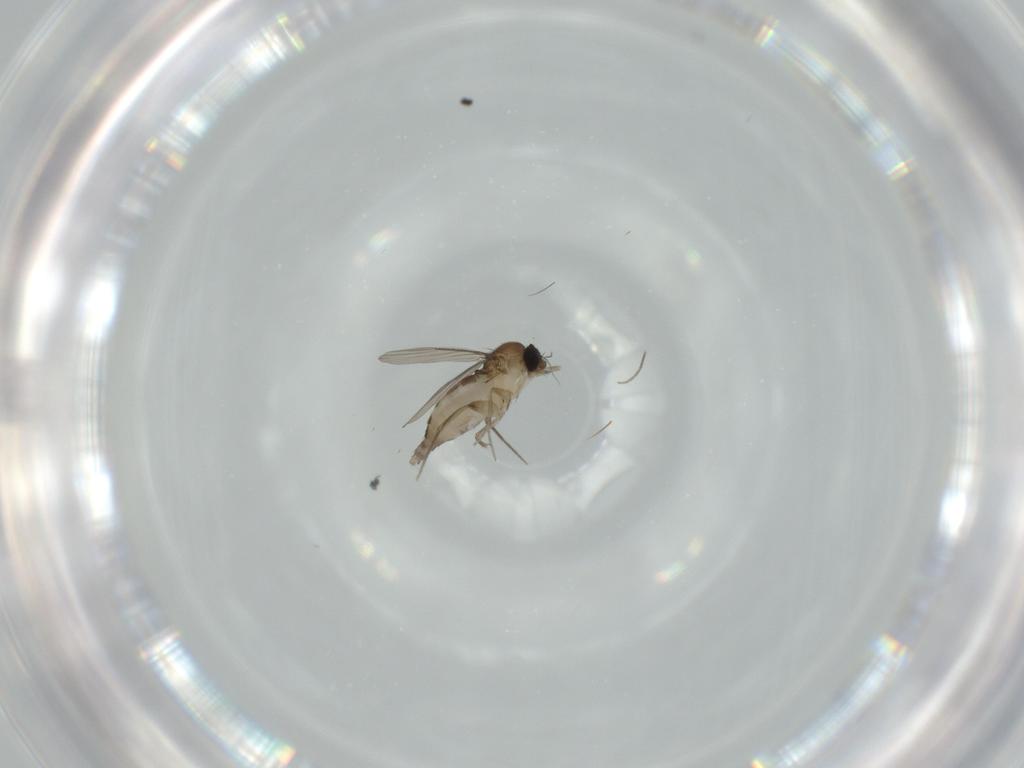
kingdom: Animalia
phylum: Arthropoda
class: Insecta
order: Diptera
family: Phoridae
